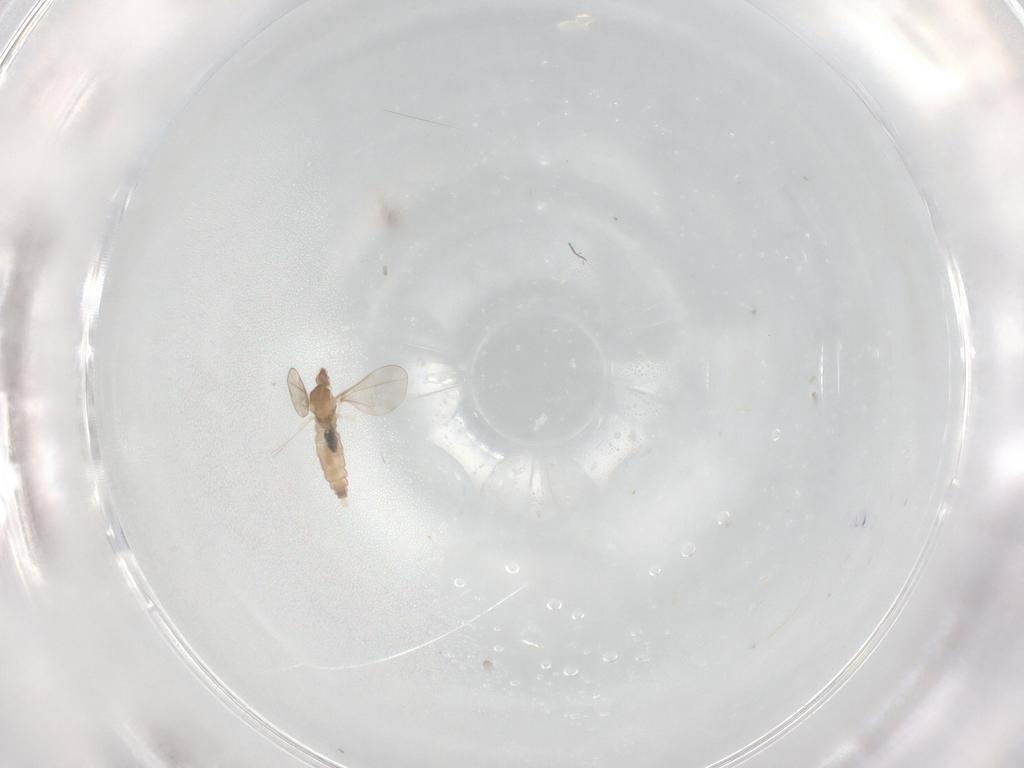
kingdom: Animalia
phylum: Arthropoda
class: Insecta
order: Diptera
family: Cecidomyiidae
